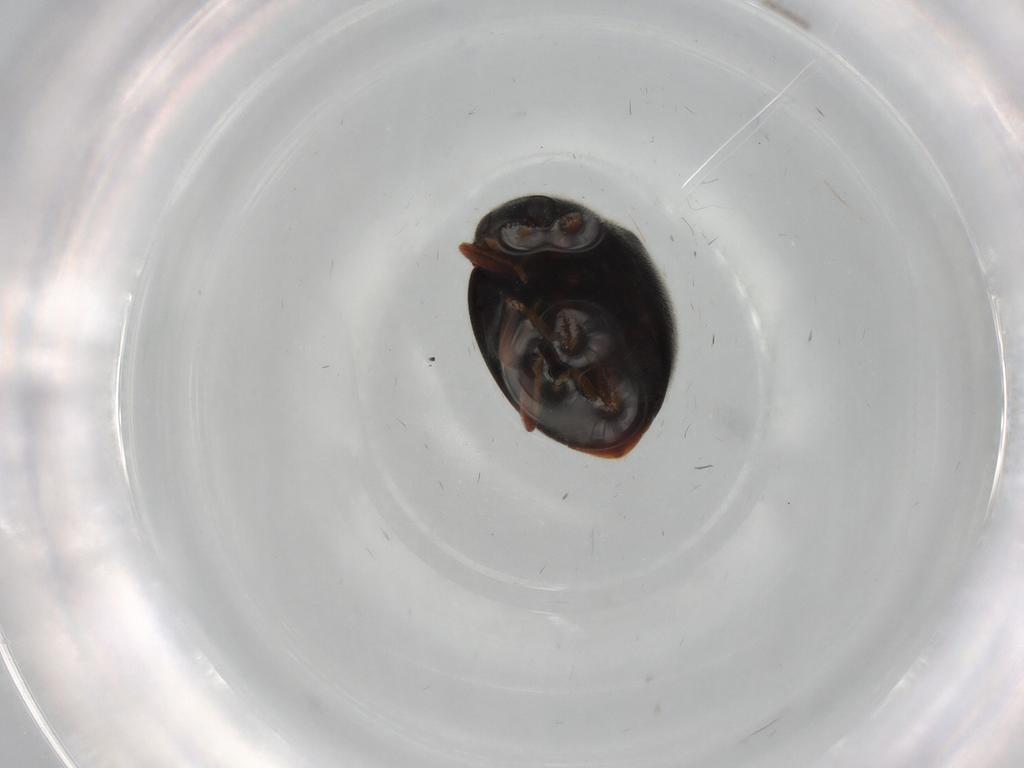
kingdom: Animalia
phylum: Arthropoda
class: Insecta
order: Coleoptera
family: Coccinellidae
